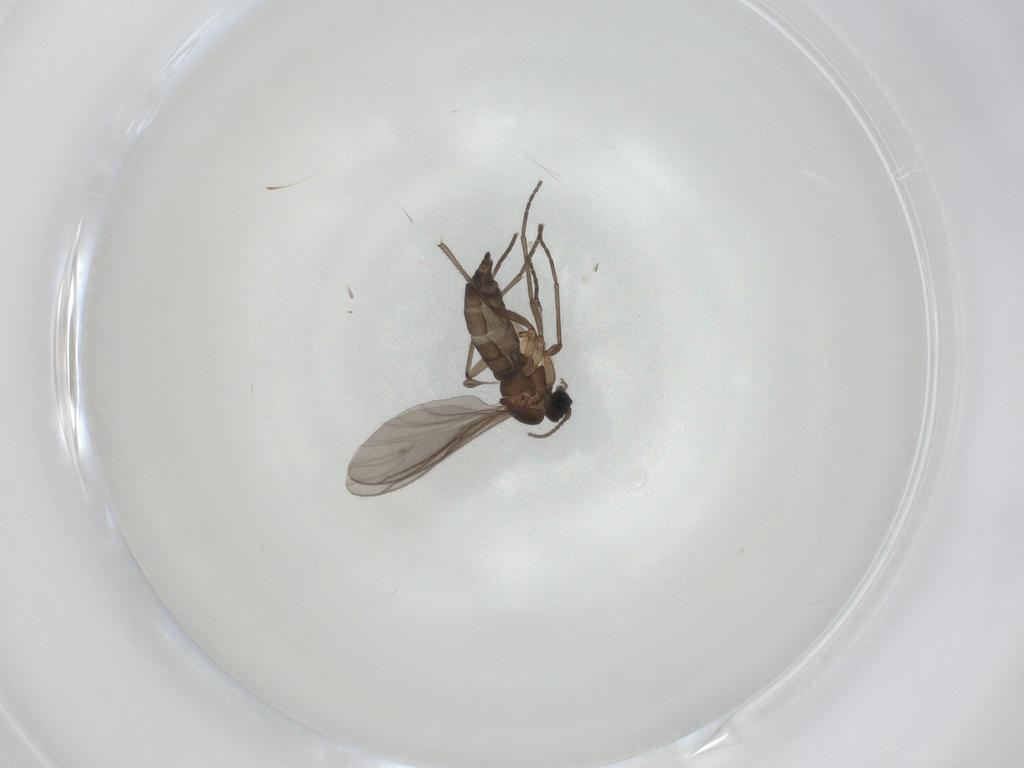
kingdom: Animalia
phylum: Arthropoda
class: Insecta
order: Diptera
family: Sciaridae
